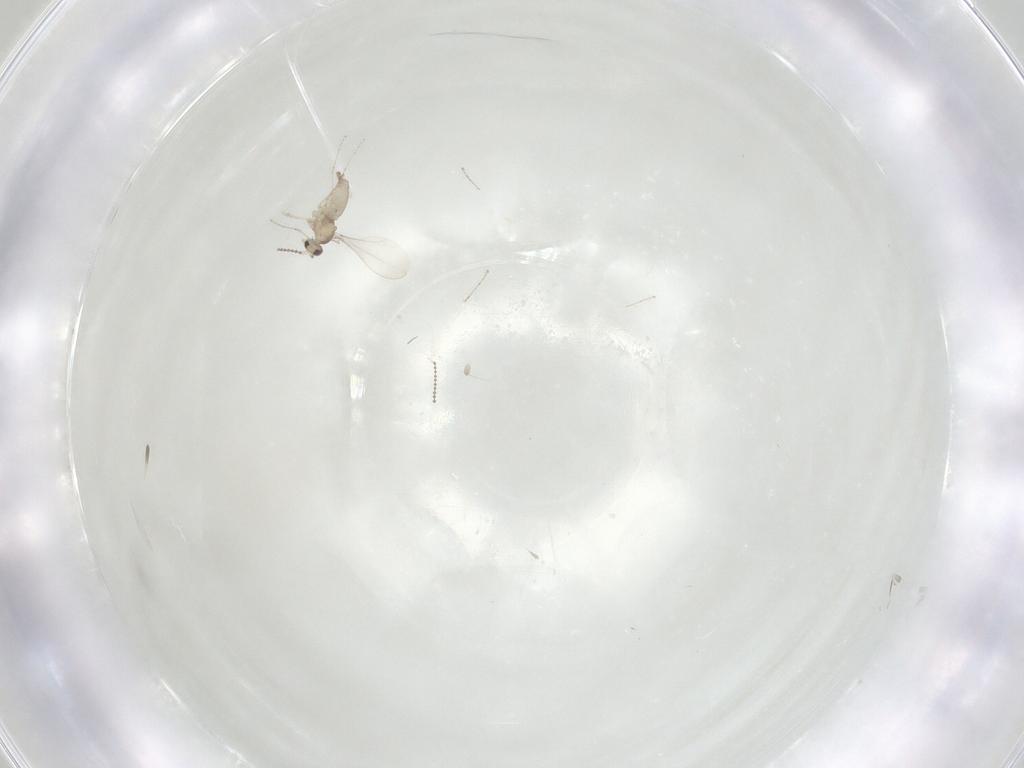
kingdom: Animalia
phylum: Arthropoda
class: Insecta
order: Diptera
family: Cecidomyiidae
